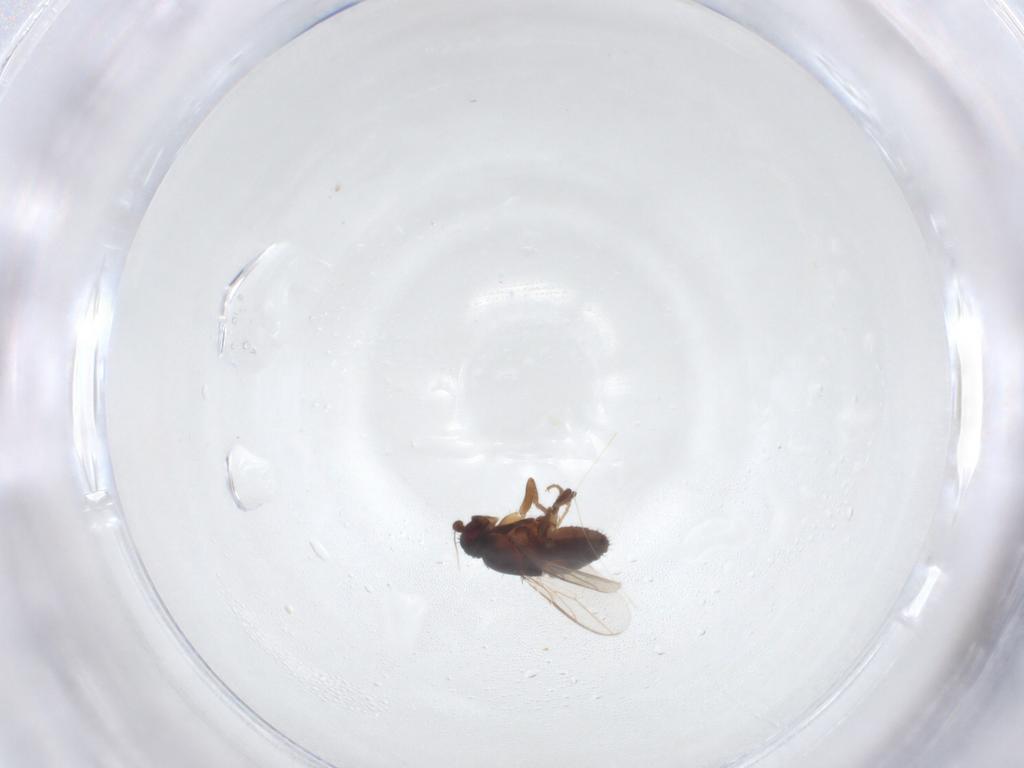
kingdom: Animalia
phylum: Arthropoda
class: Insecta
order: Diptera
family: Sphaeroceridae
